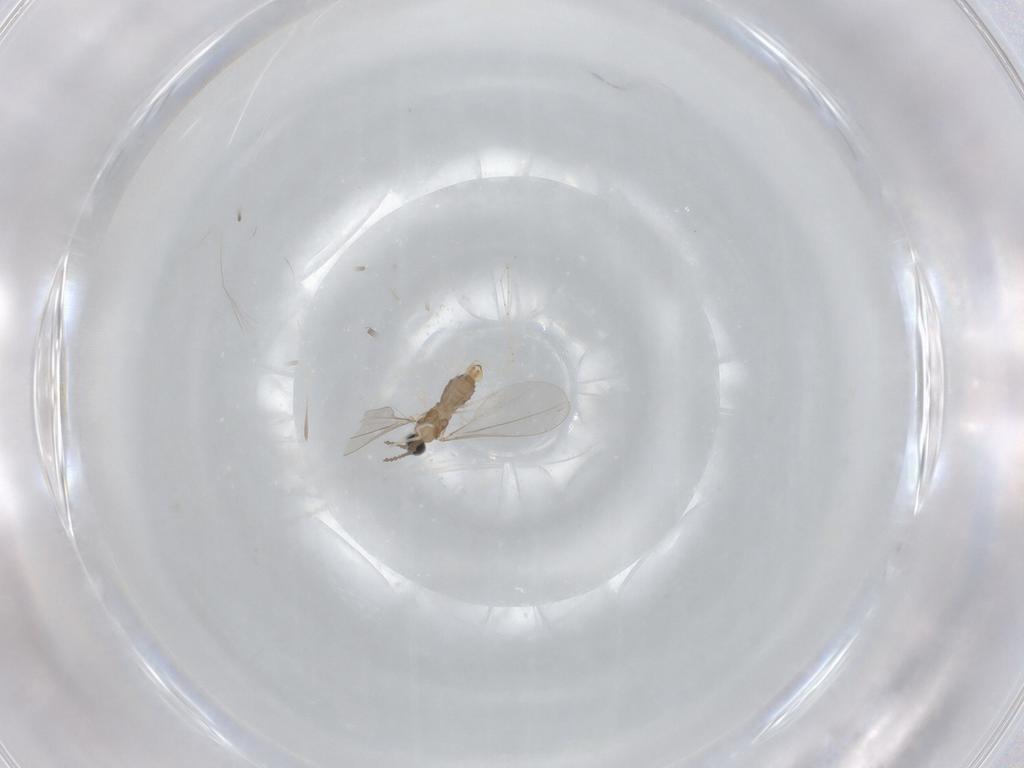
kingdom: Animalia
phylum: Arthropoda
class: Insecta
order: Diptera
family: Cecidomyiidae
